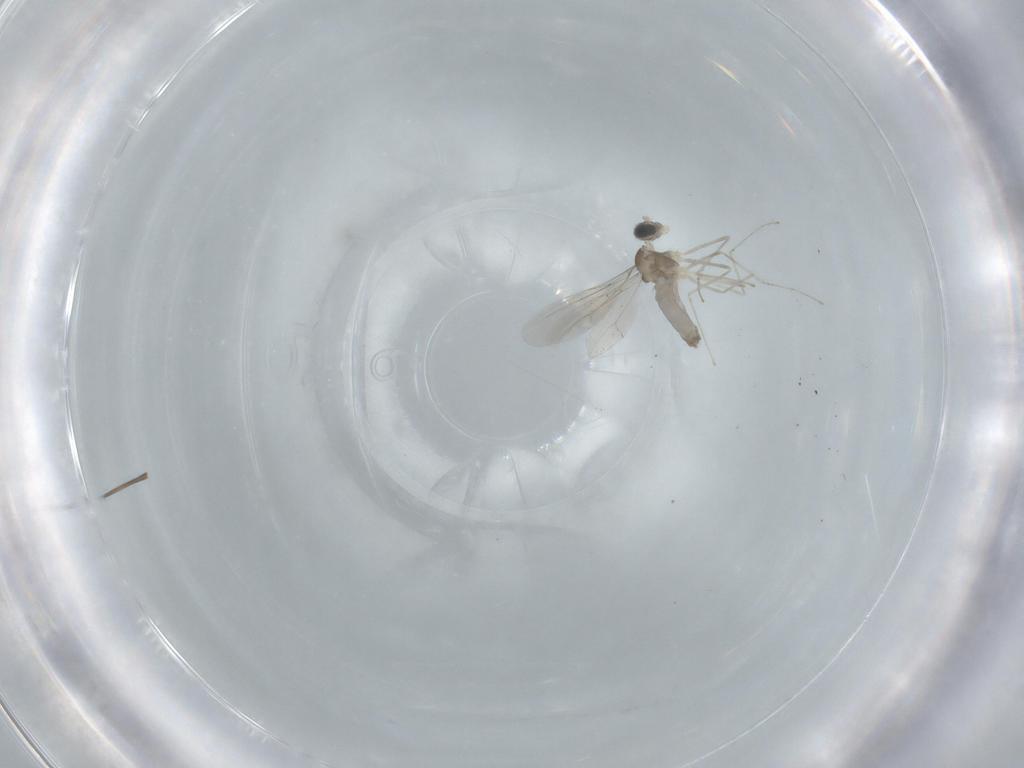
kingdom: Animalia
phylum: Arthropoda
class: Insecta
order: Diptera
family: Cecidomyiidae
